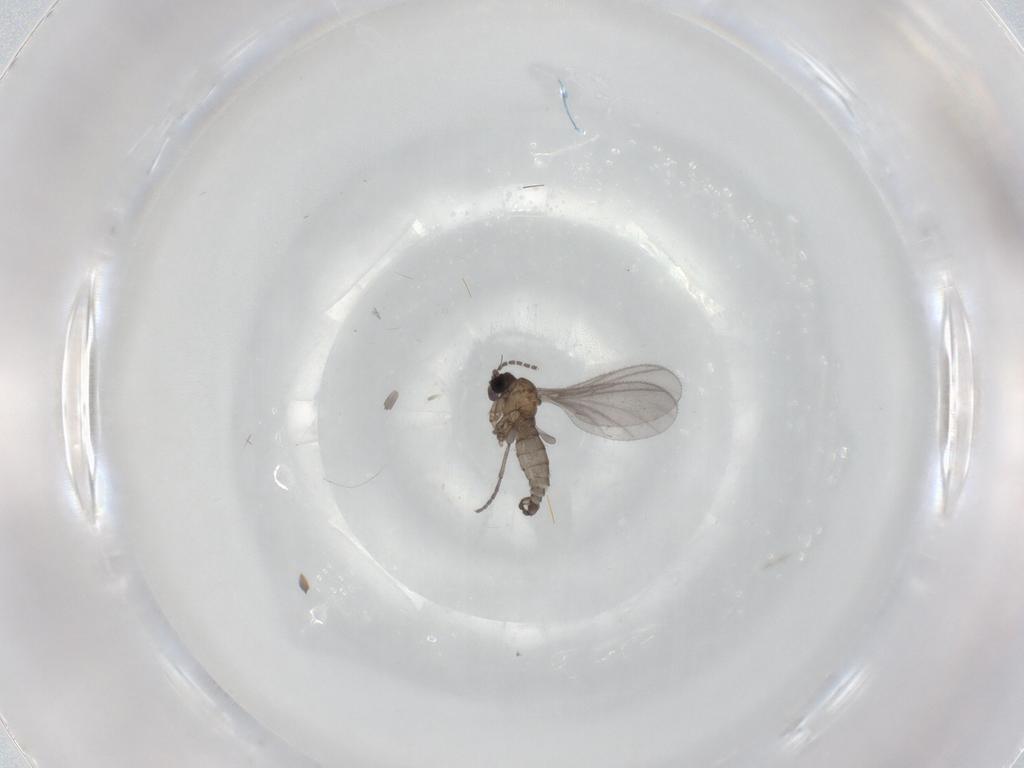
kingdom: Animalia
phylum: Arthropoda
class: Insecta
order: Diptera
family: Sciaridae
